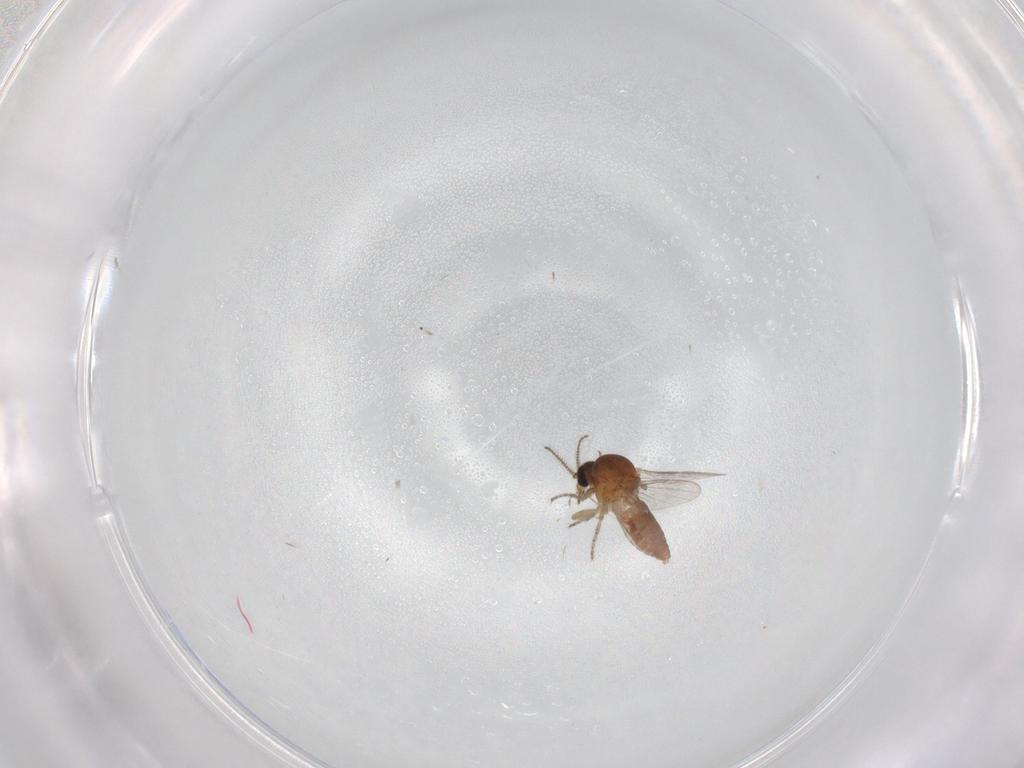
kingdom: Animalia
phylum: Arthropoda
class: Insecta
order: Diptera
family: Ceratopogonidae
